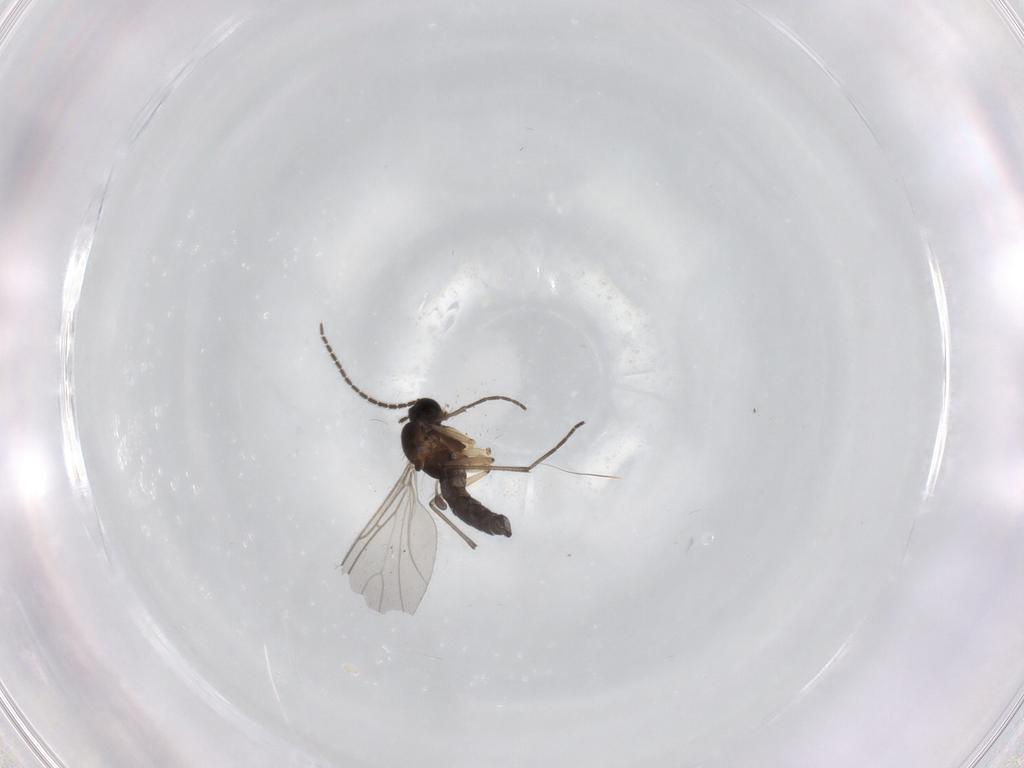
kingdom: Animalia
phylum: Arthropoda
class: Insecta
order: Diptera
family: Sciaridae
